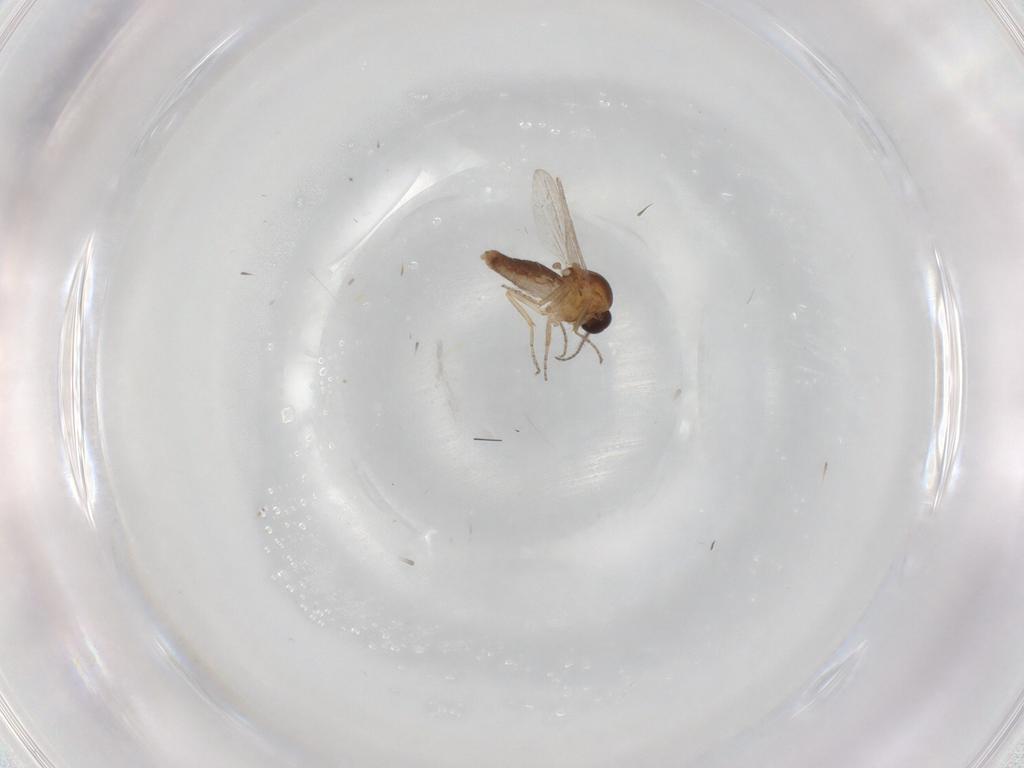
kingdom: Animalia
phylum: Arthropoda
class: Insecta
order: Diptera
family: Ceratopogonidae
